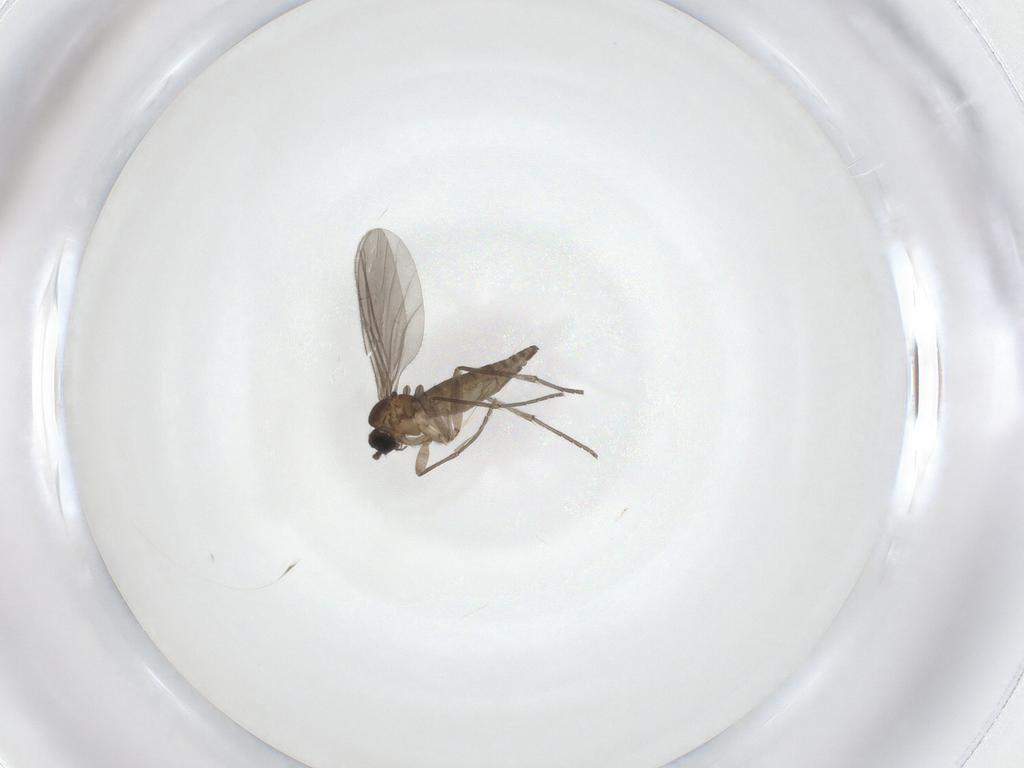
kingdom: Animalia
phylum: Arthropoda
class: Insecta
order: Diptera
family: Sciaridae
